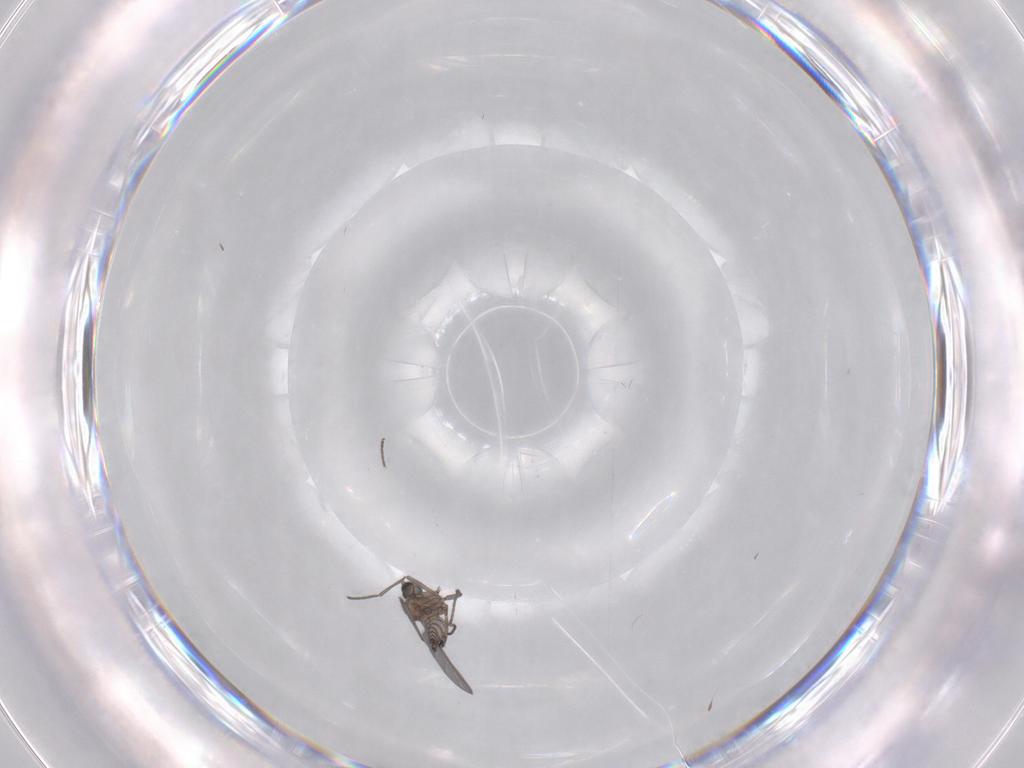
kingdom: Animalia
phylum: Arthropoda
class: Insecta
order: Diptera
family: Sciaridae
